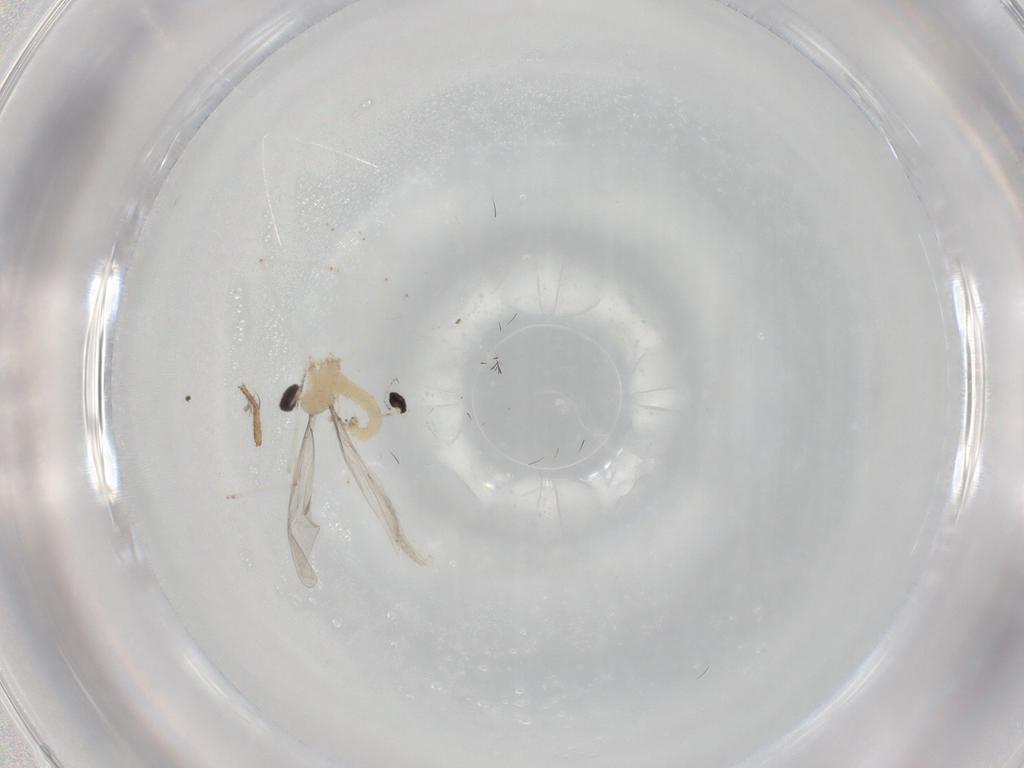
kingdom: Animalia
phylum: Arthropoda
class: Insecta
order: Diptera
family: Cecidomyiidae
